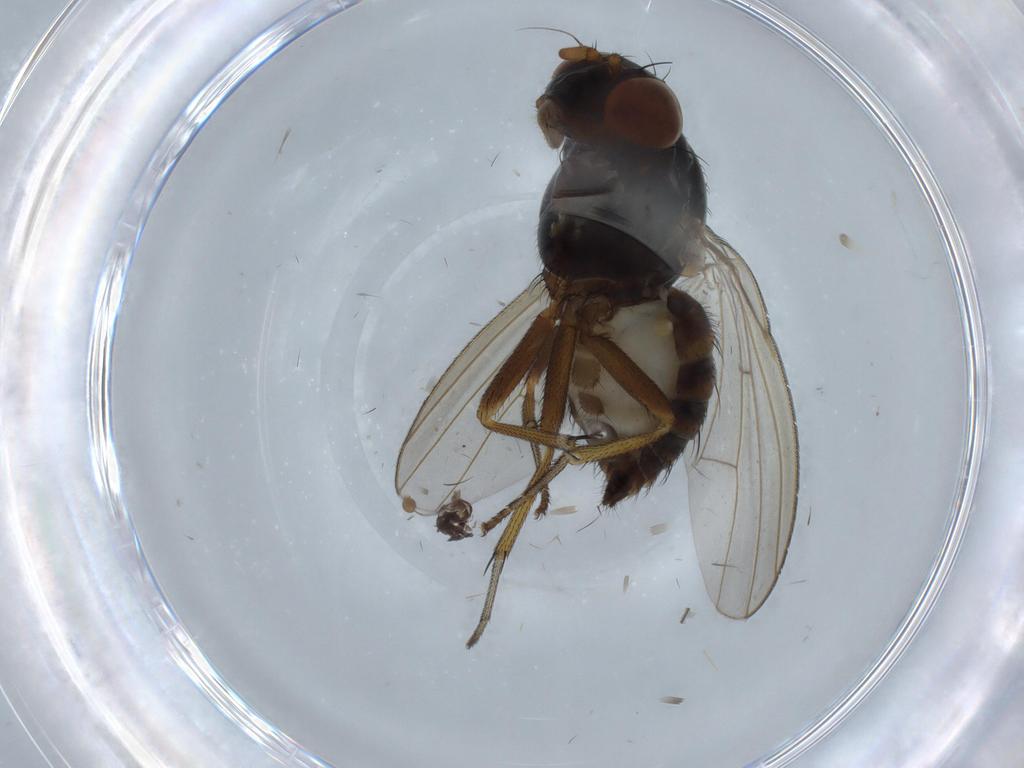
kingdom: Animalia
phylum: Arthropoda
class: Insecta
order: Diptera
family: Phoridae
